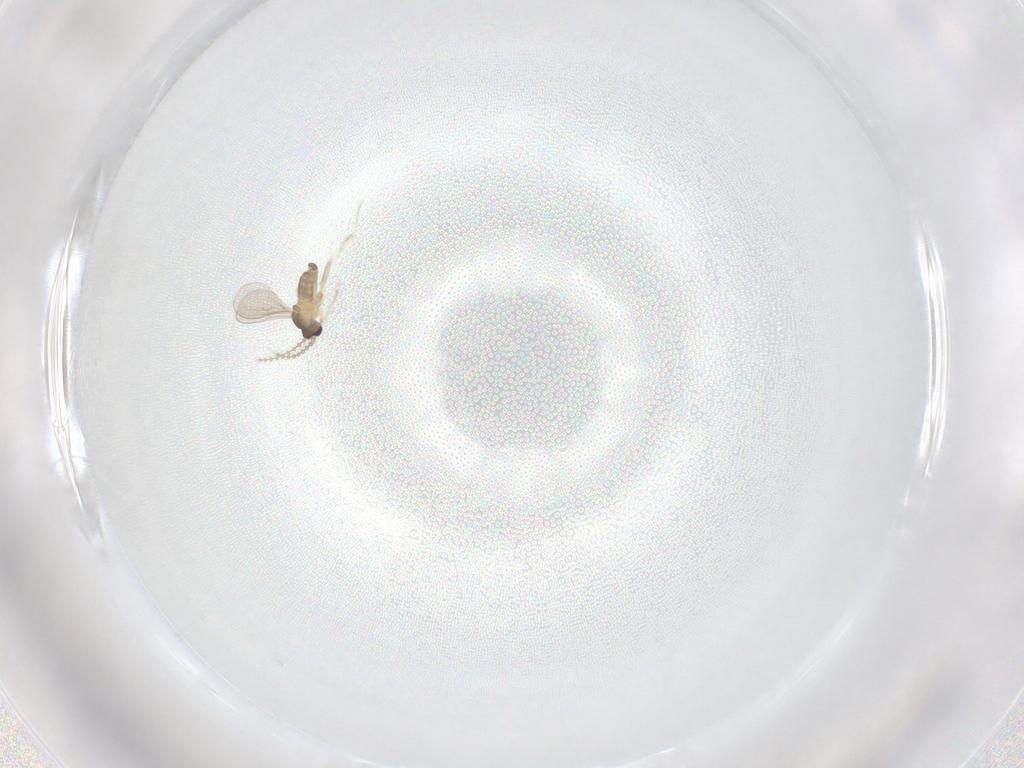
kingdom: Animalia
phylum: Arthropoda
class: Insecta
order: Diptera
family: Cecidomyiidae
